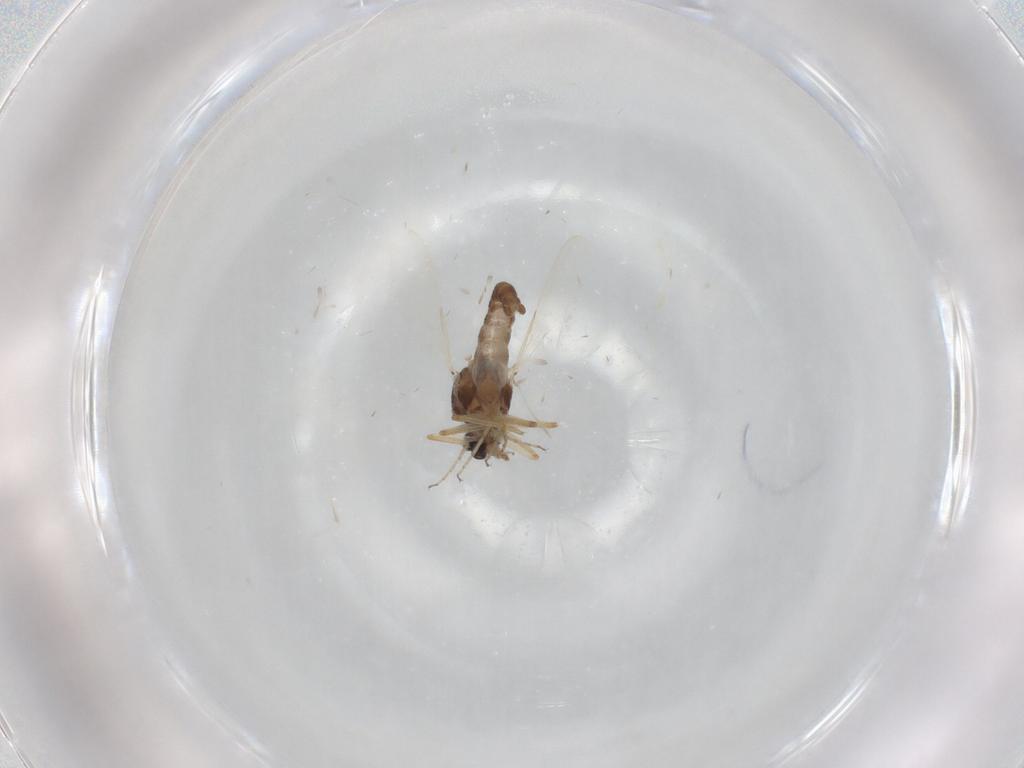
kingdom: Animalia
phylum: Arthropoda
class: Insecta
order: Diptera
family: Ceratopogonidae
